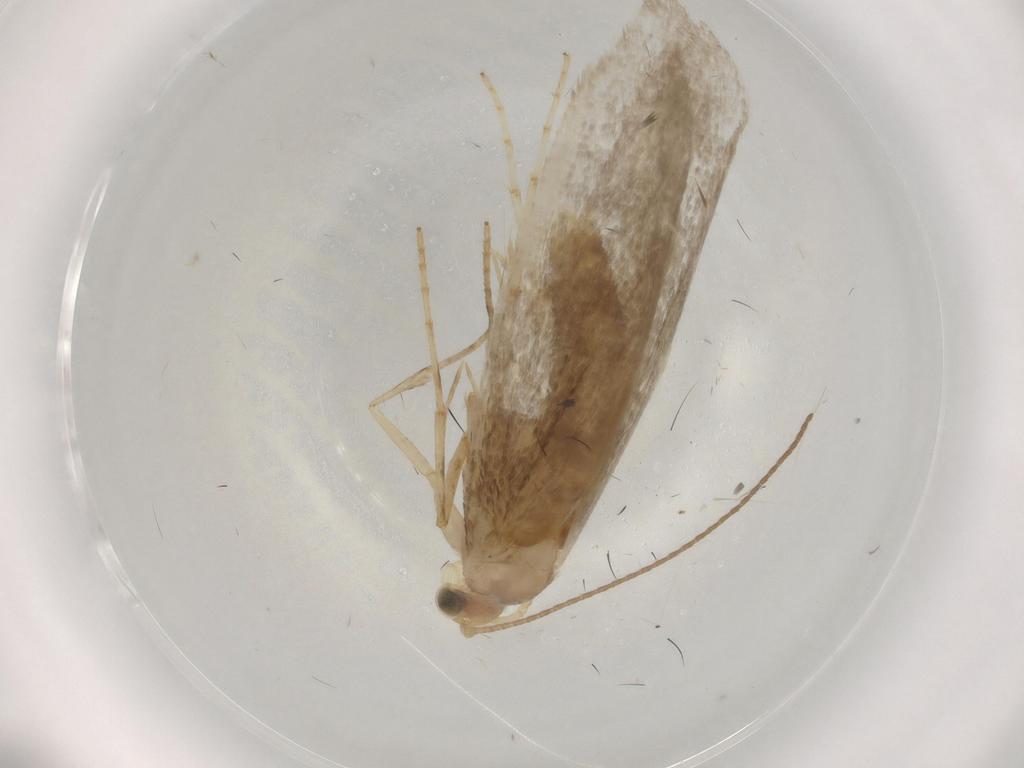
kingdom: Animalia
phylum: Arthropoda
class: Insecta
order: Lepidoptera
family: Argyresthiidae
